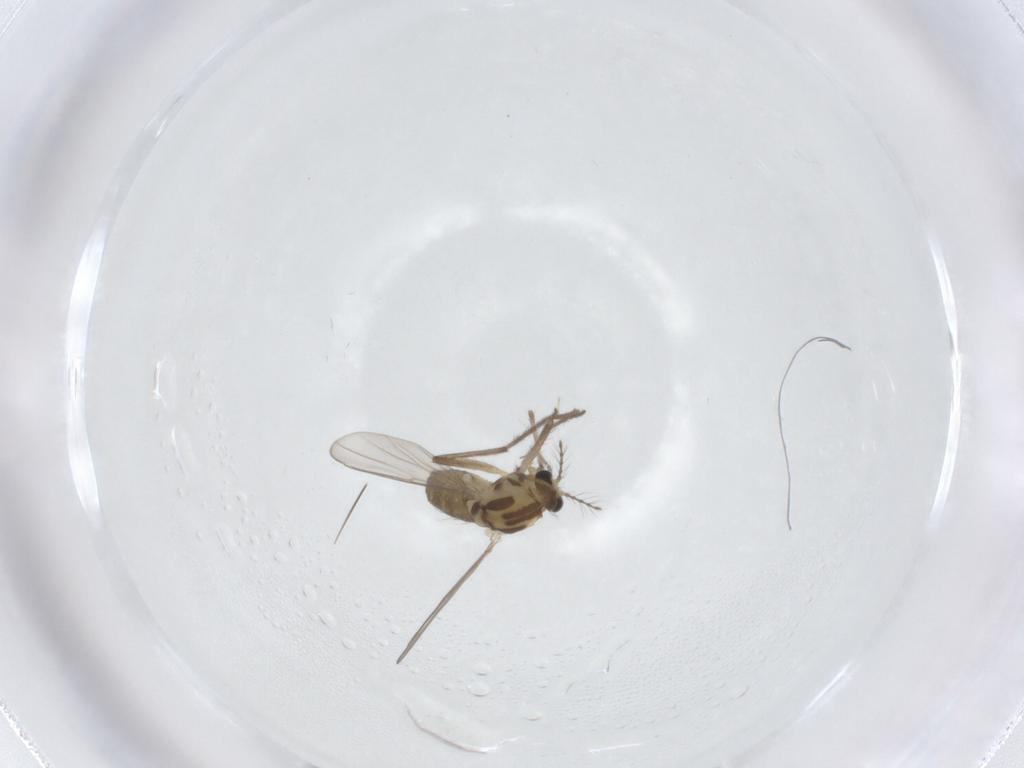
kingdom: Animalia
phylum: Arthropoda
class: Insecta
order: Diptera
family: Chironomidae
